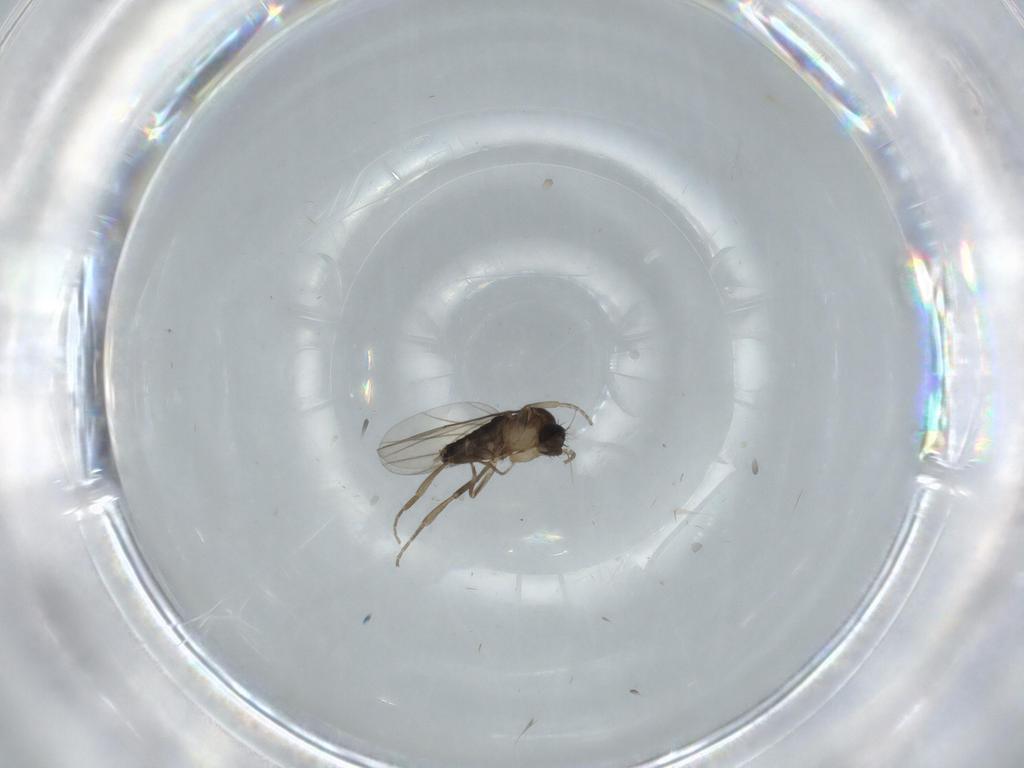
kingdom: Animalia
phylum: Arthropoda
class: Insecta
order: Diptera
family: Phoridae
